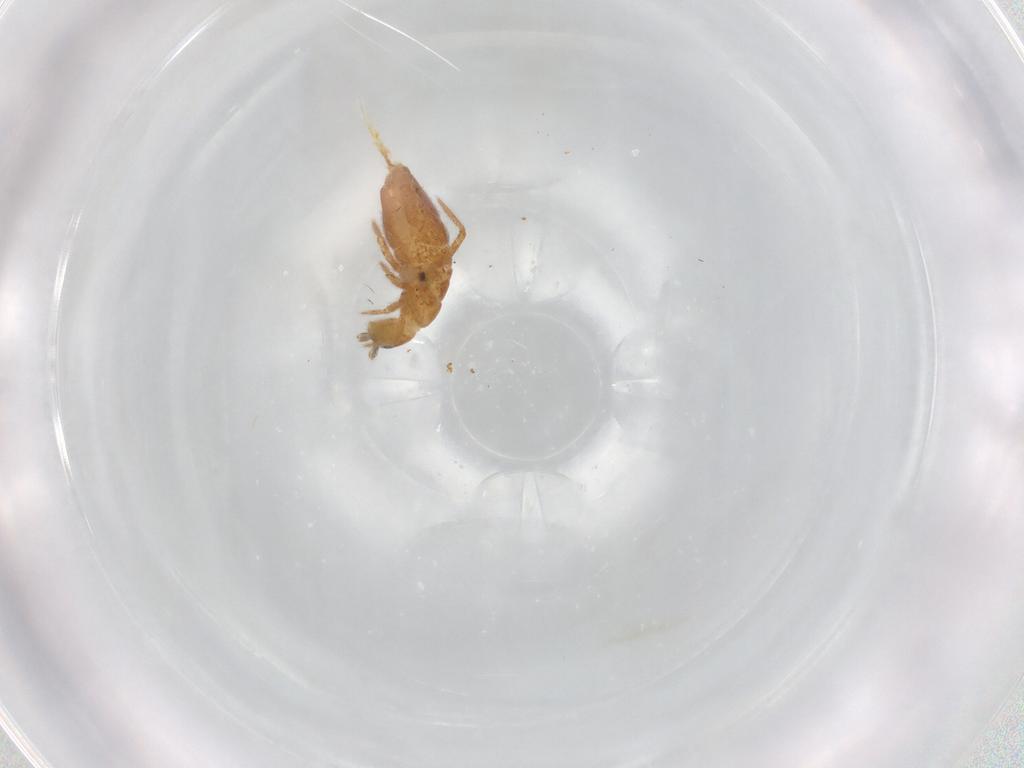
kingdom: Animalia
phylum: Arthropoda
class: Collembola
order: Entomobryomorpha
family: Entomobryidae
